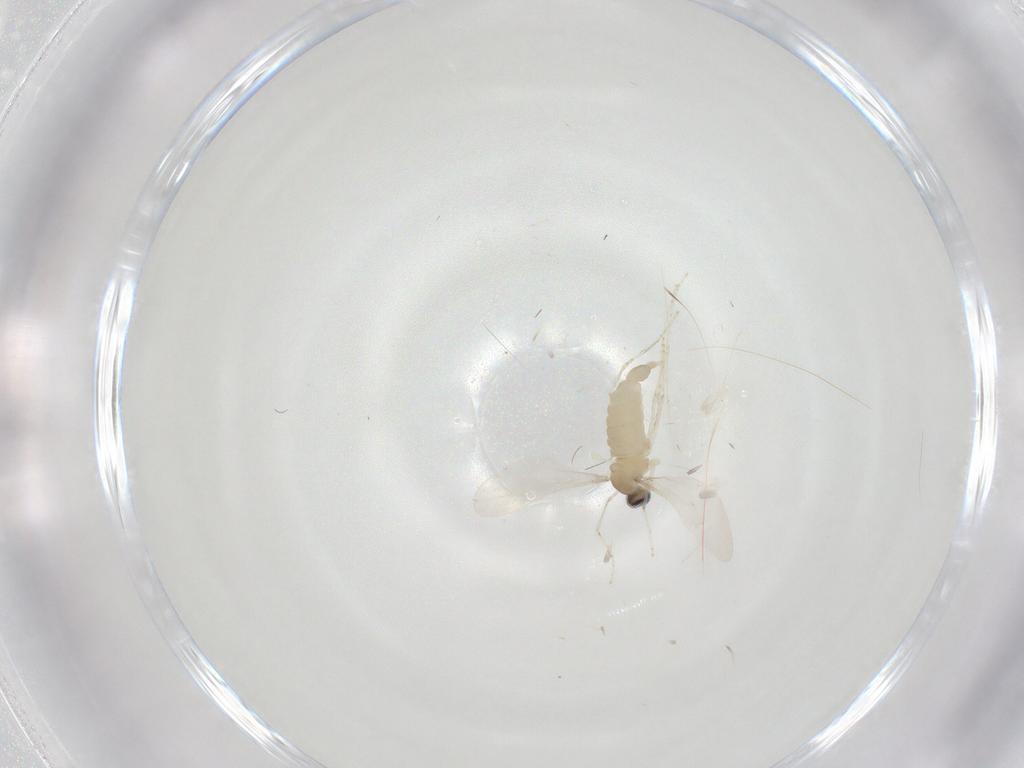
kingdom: Animalia
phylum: Arthropoda
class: Insecta
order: Diptera
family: Cecidomyiidae
